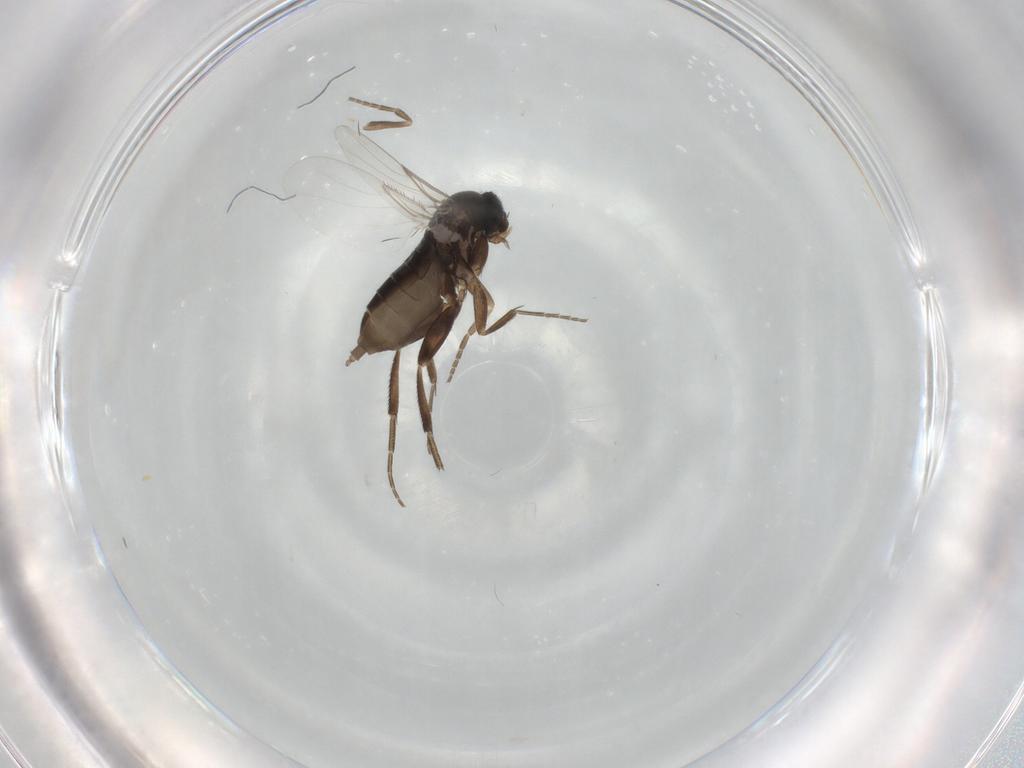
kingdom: Animalia
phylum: Arthropoda
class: Insecta
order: Diptera
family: Phoridae
